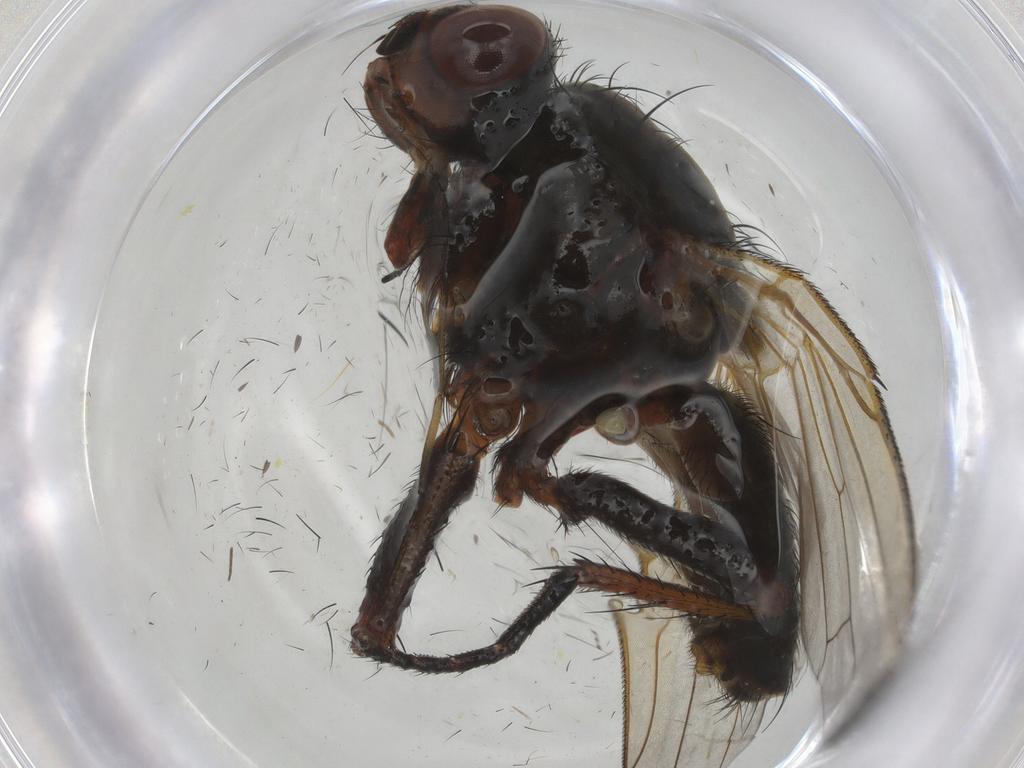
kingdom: Animalia
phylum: Arthropoda
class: Insecta
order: Diptera
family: Anthomyiidae
